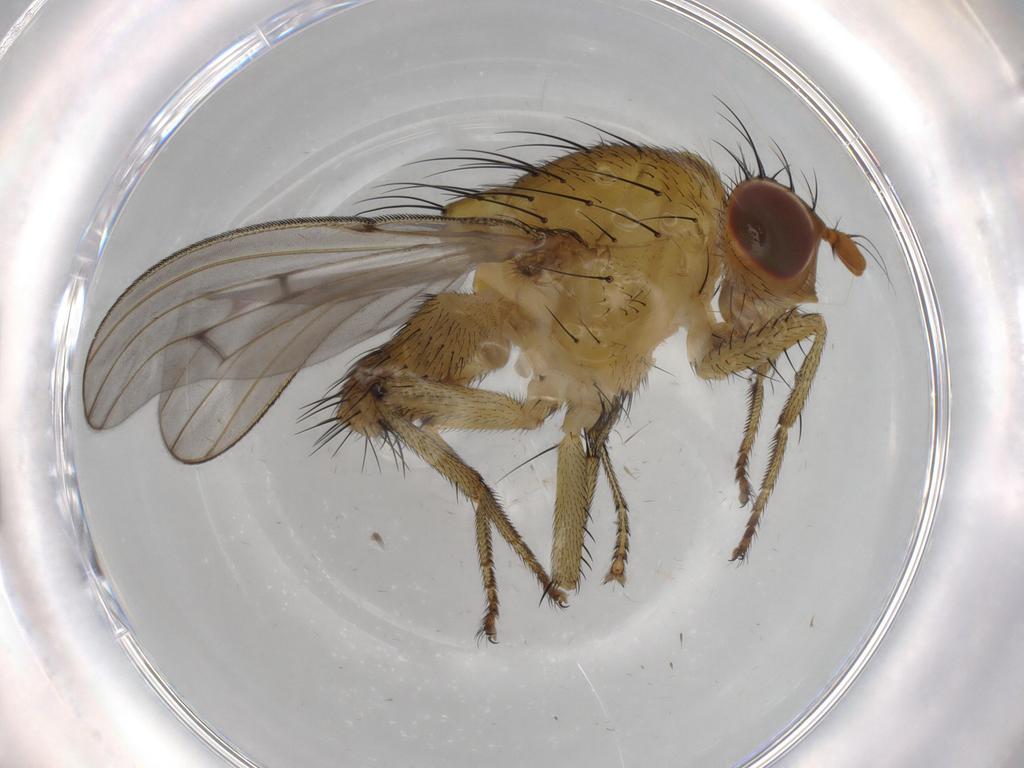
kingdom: Animalia
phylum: Arthropoda
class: Insecta
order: Diptera
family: Lauxaniidae
